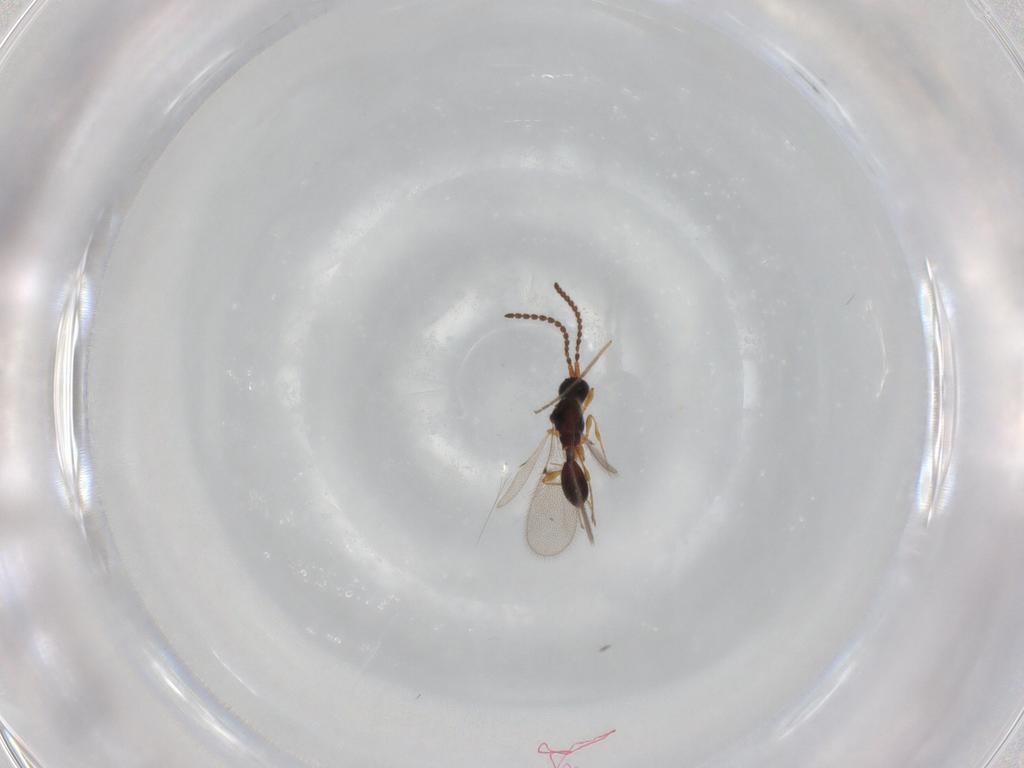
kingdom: Animalia
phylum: Arthropoda
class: Insecta
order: Hymenoptera
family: Diapriidae
